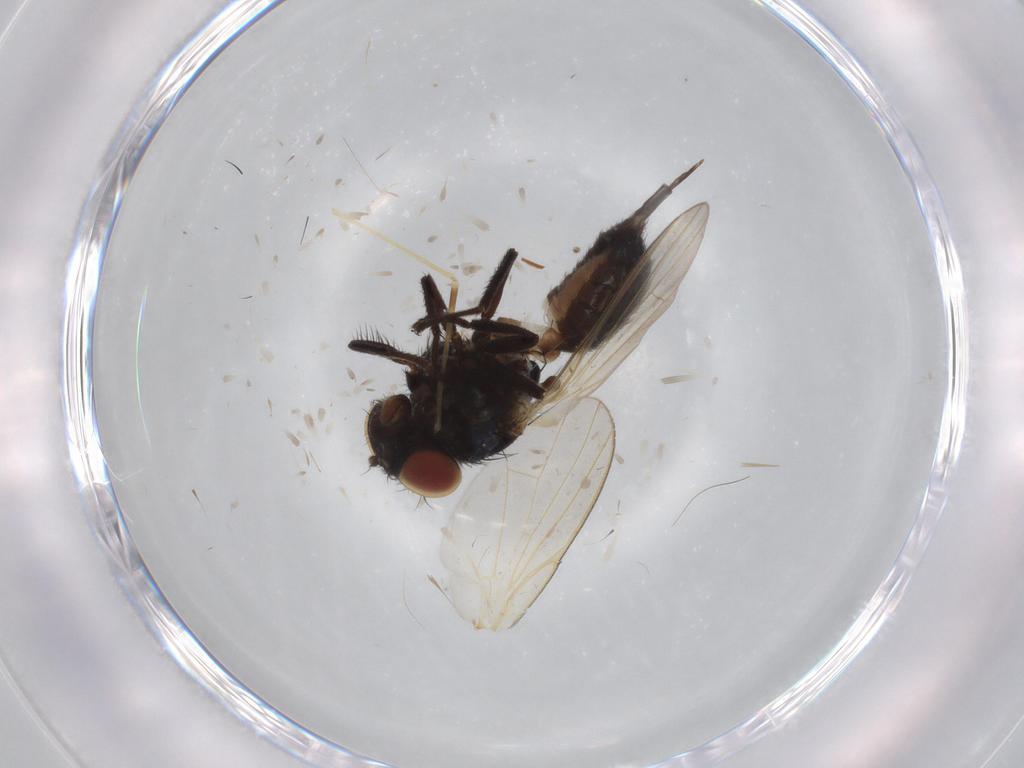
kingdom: Animalia
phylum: Arthropoda
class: Insecta
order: Diptera
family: Lonchaeidae
